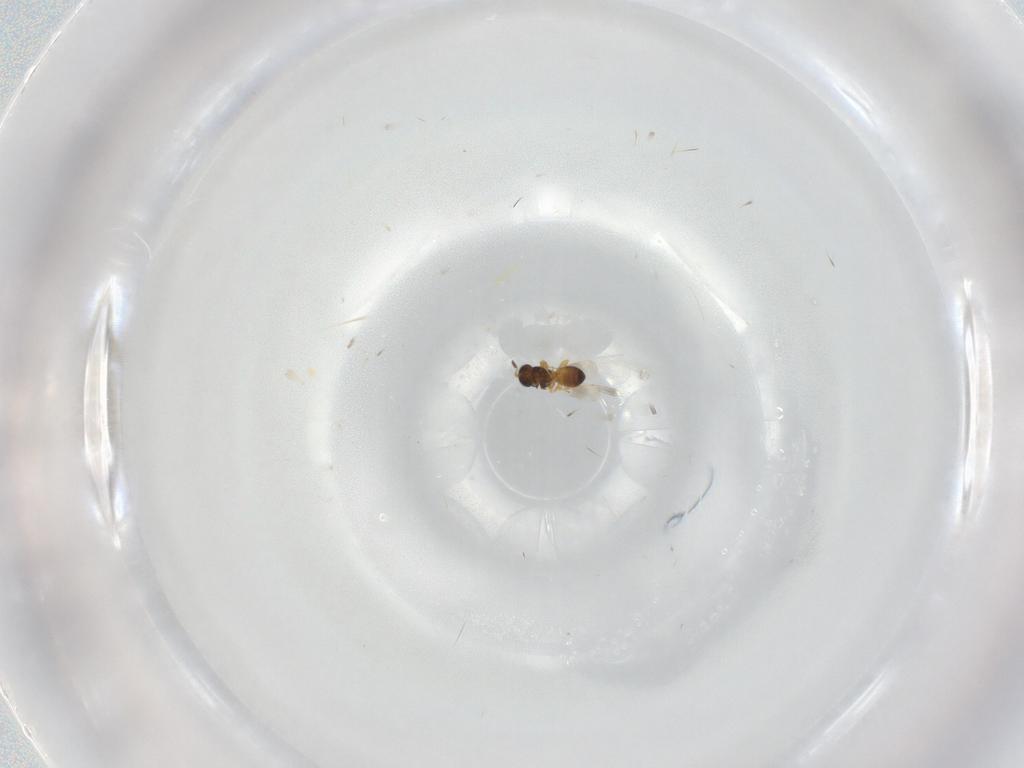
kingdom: Animalia
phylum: Arthropoda
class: Insecta
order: Hymenoptera
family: Platygastridae
